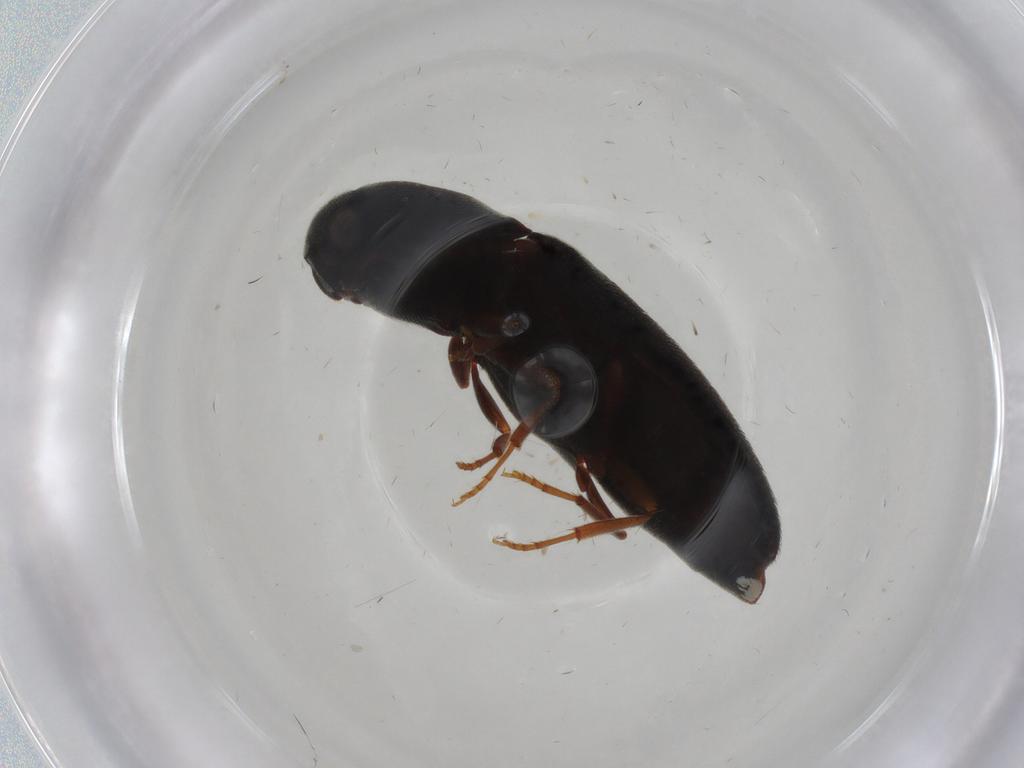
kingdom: Animalia
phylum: Arthropoda
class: Insecta
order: Coleoptera
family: Eucnemidae
